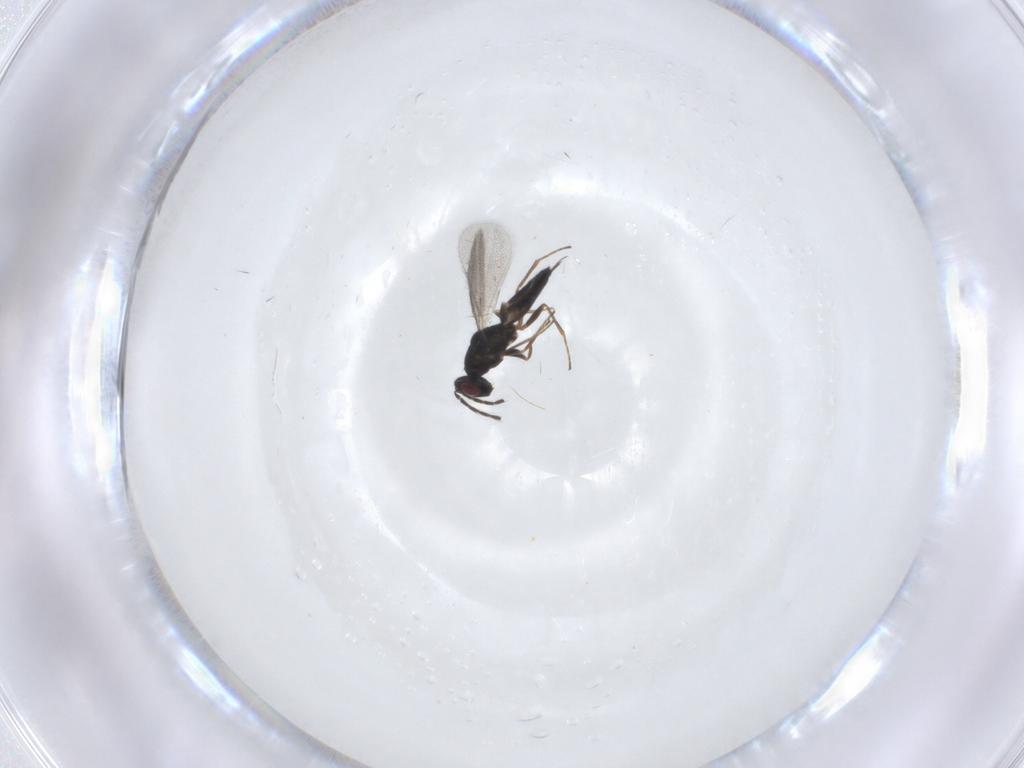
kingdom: Animalia
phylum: Arthropoda
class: Insecta
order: Hymenoptera
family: Eulophidae
